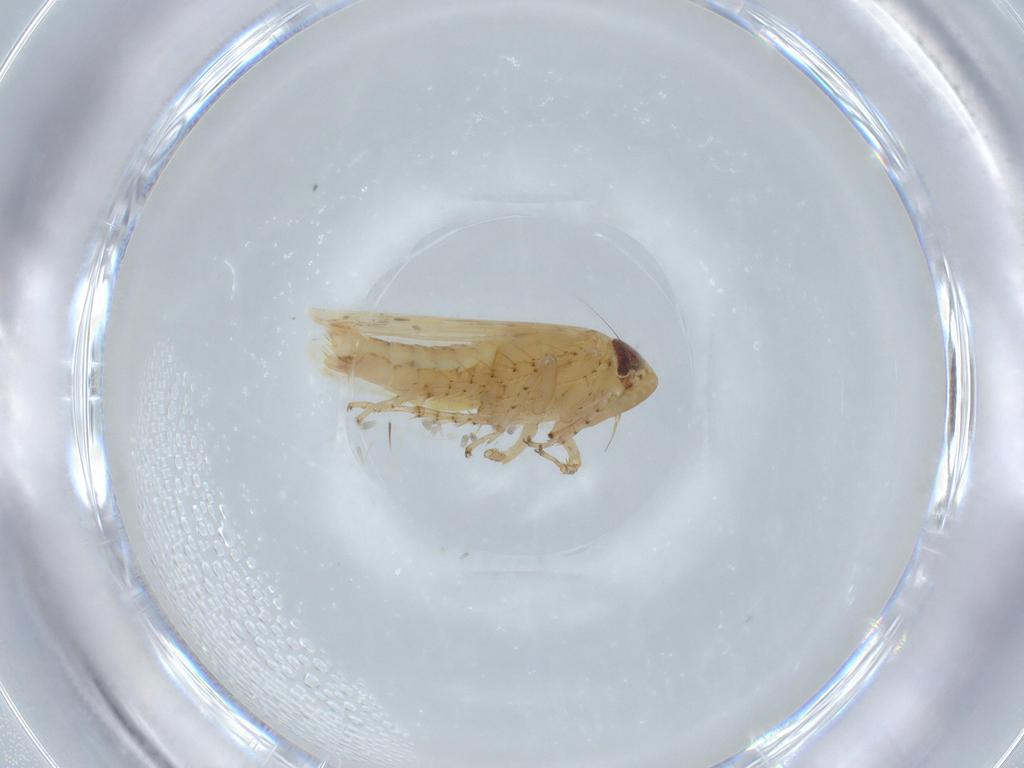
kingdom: Animalia
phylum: Arthropoda
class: Insecta
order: Hemiptera
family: Cicadellidae
